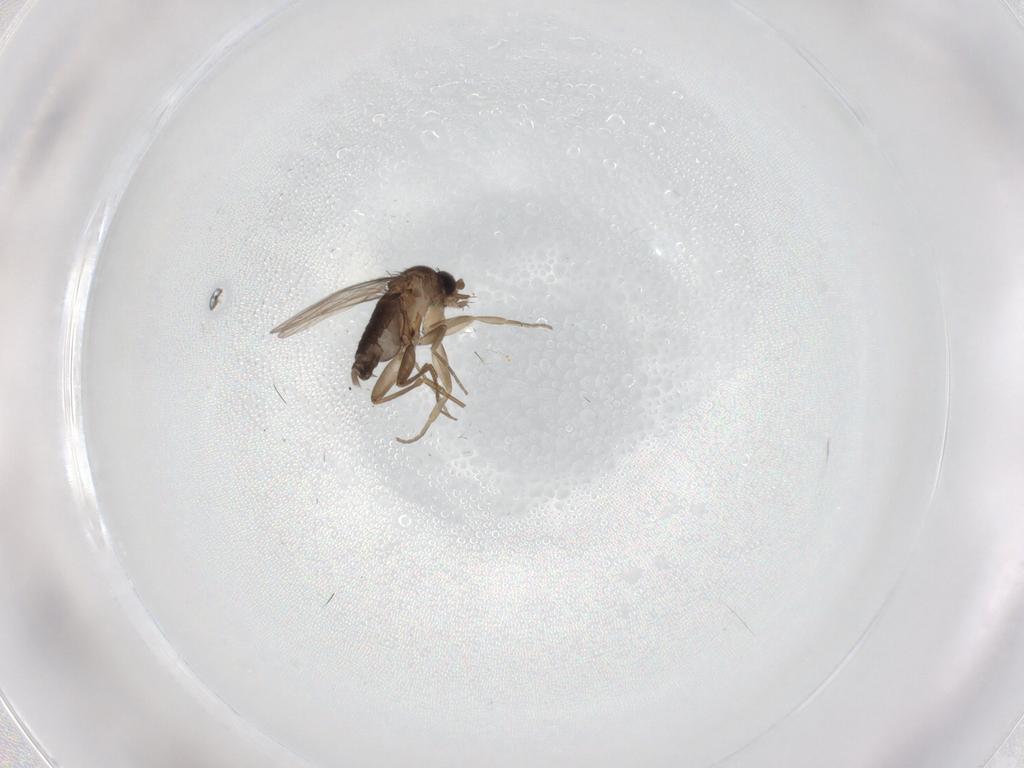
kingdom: Animalia
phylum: Arthropoda
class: Insecta
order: Diptera
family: Phoridae
